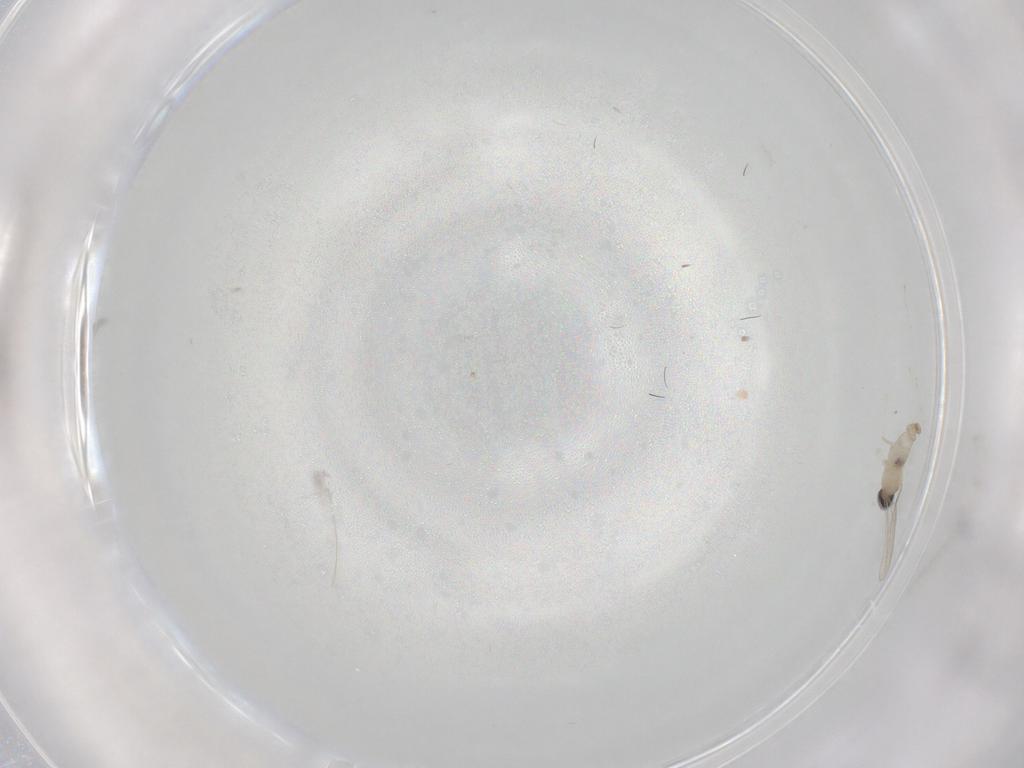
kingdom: Animalia
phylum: Arthropoda
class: Insecta
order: Diptera
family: Cecidomyiidae
